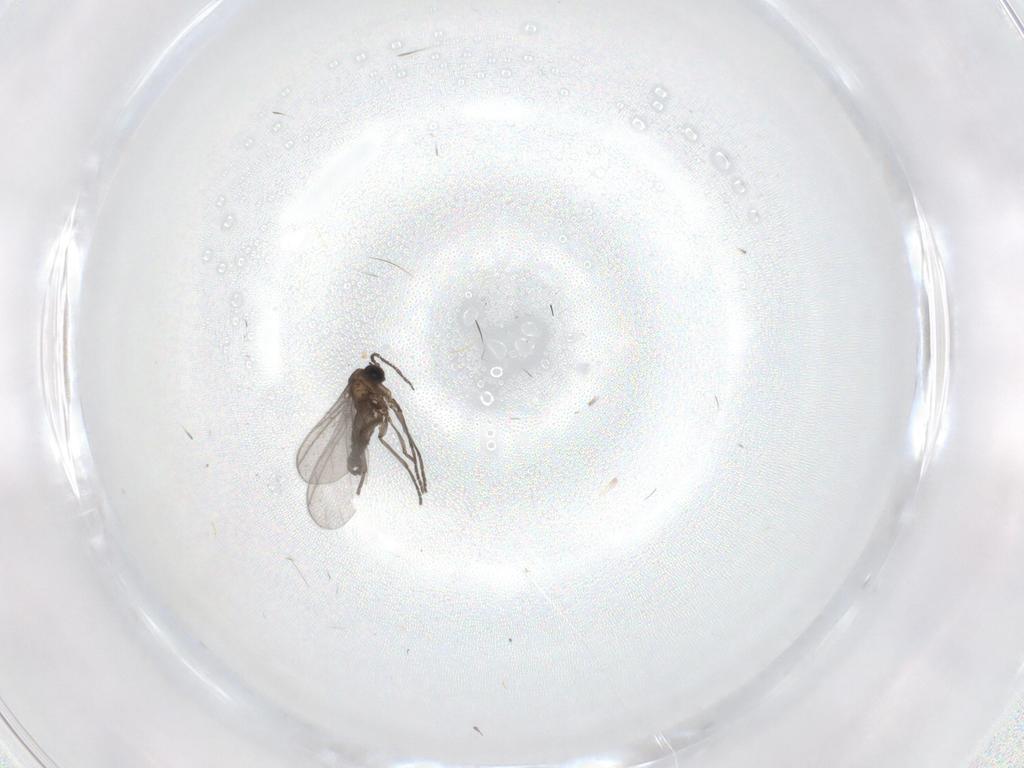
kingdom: Animalia
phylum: Arthropoda
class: Insecta
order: Diptera
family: Sciaridae
